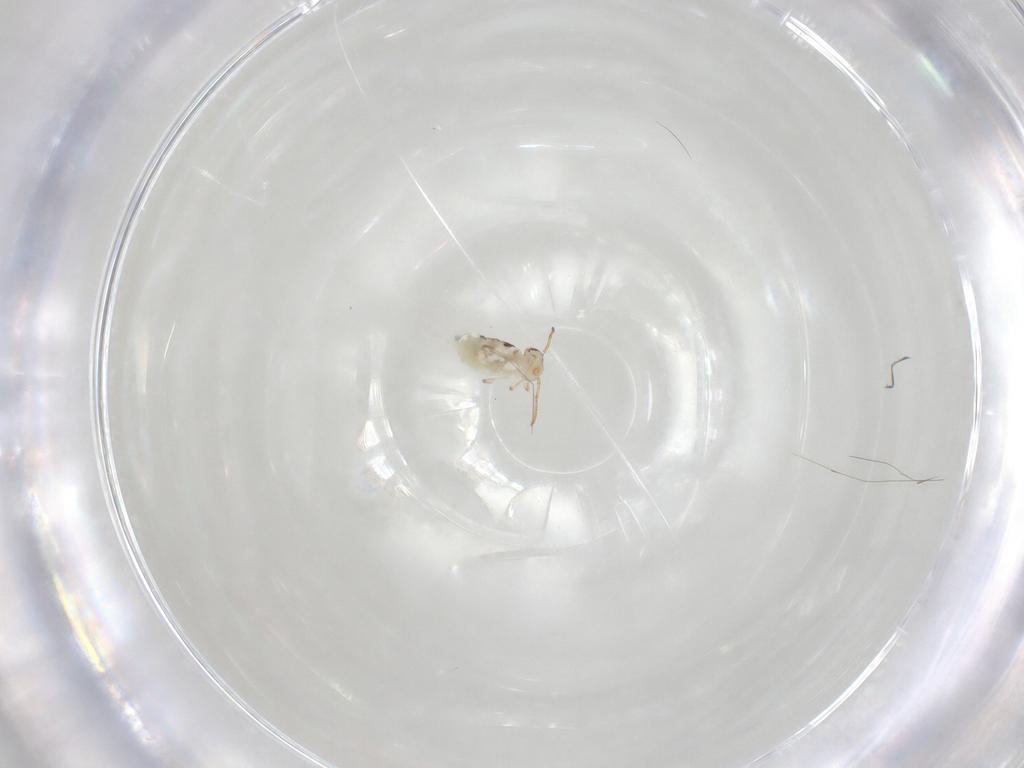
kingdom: Animalia
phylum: Arthropoda
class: Collembola
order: Symphypleona
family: Bourletiellidae
